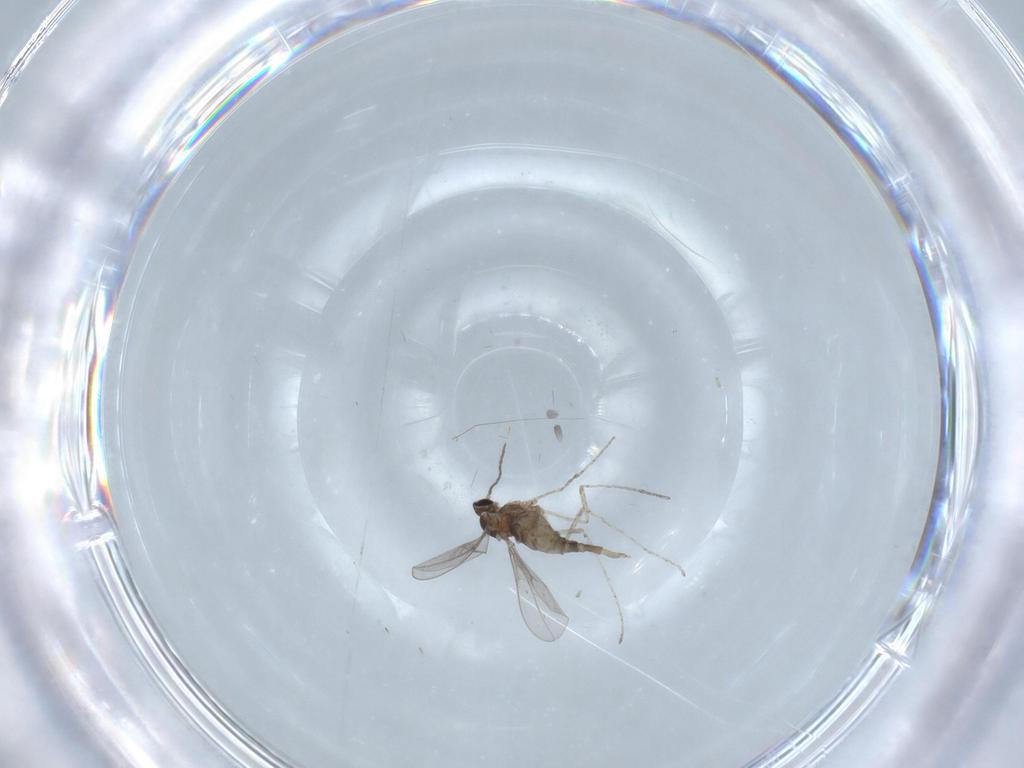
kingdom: Animalia
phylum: Arthropoda
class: Insecta
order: Diptera
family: Cecidomyiidae
